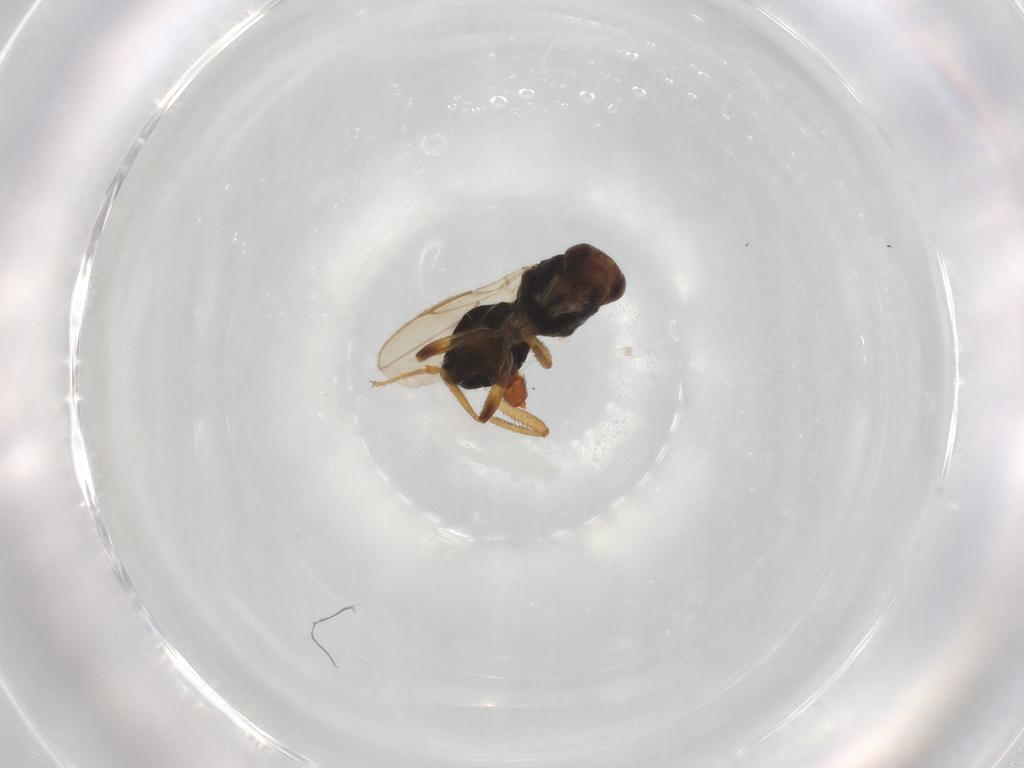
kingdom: Animalia
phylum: Arthropoda
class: Insecta
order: Diptera
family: Sphaeroceridae
